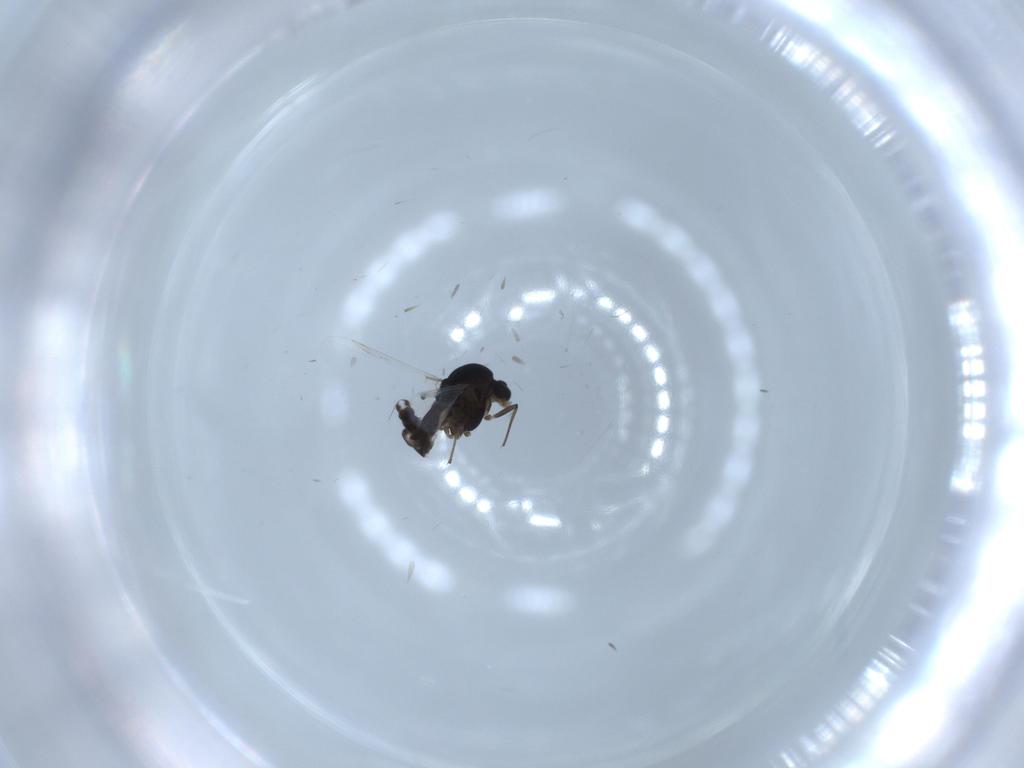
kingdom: Animalia
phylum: Arthropoda
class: Insecta
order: Diptera
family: Chironomidae
